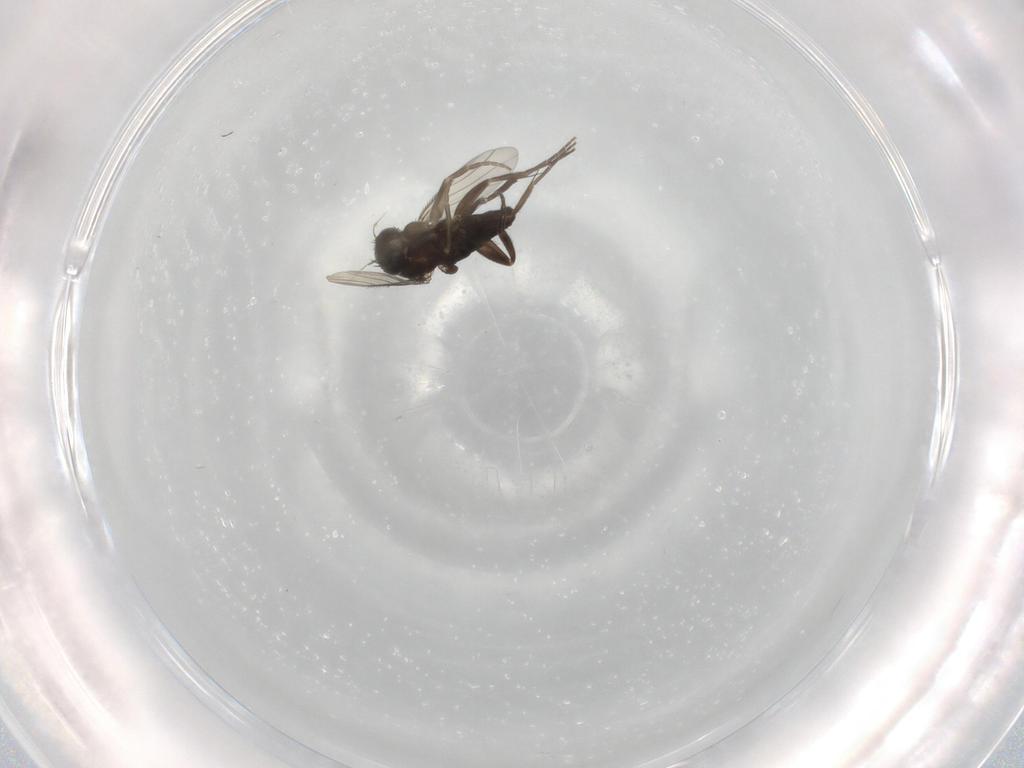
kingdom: Animalia
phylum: Arthropoda
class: Insecta
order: Diptera
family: Phoridae
